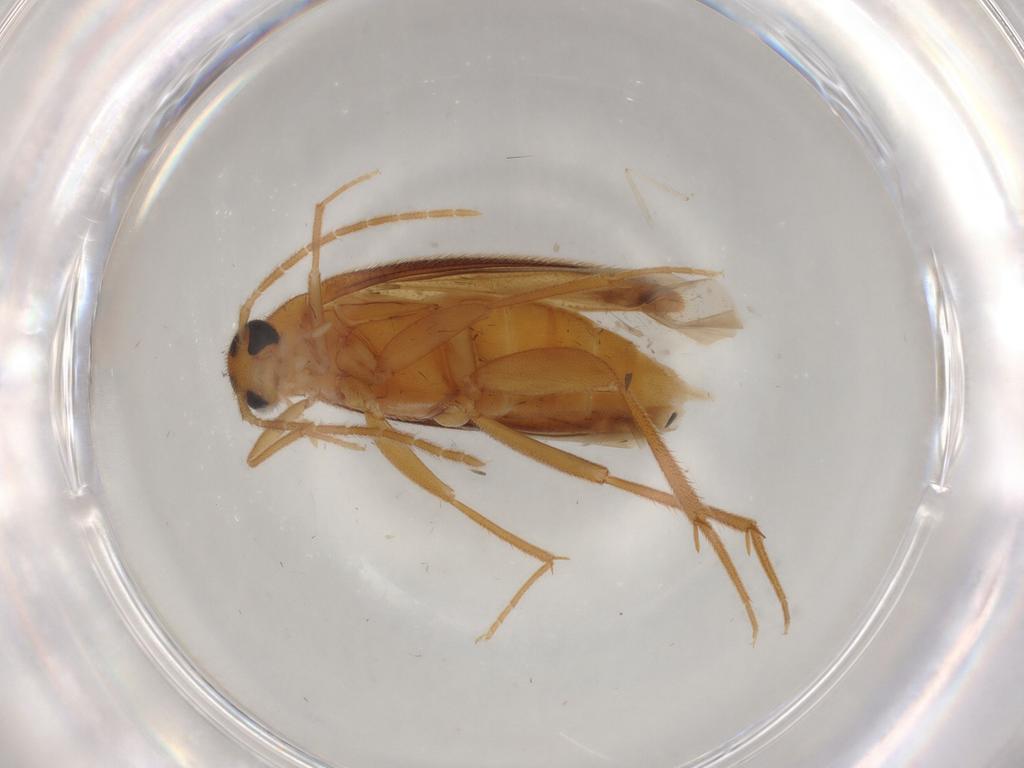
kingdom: Animalia
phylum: Arthropoda
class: Insecta
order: Coleoptera
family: Scraptiidae
